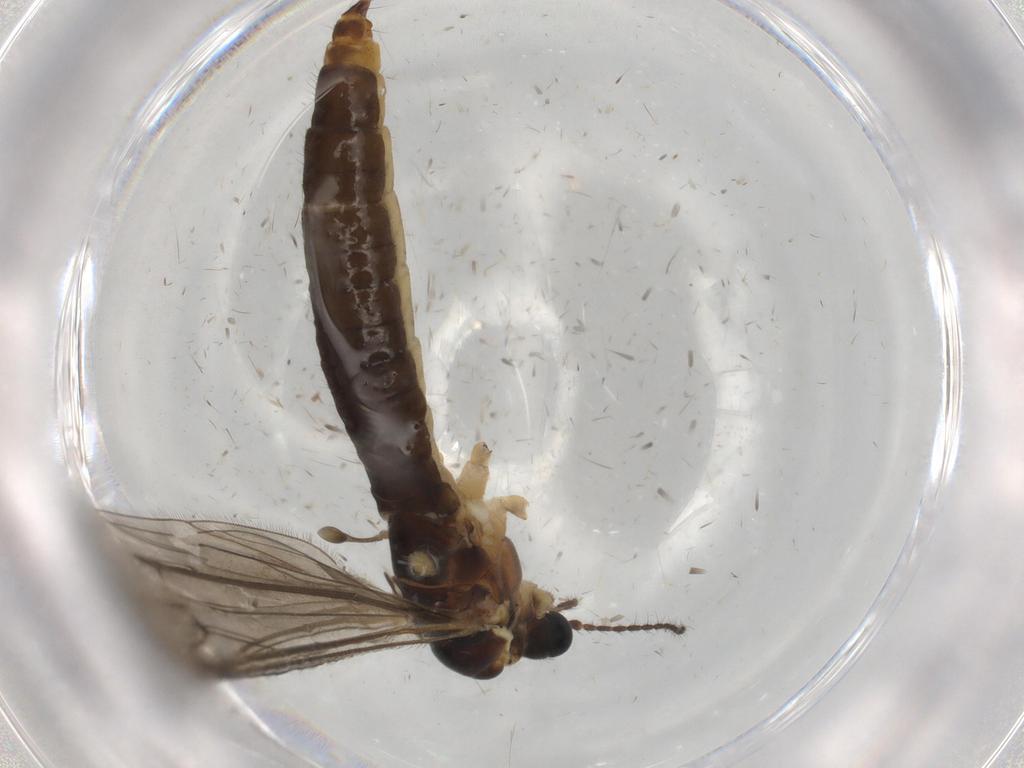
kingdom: Animalia
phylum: Arthropoda
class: Insecta
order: Diptera
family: Limoniidae
